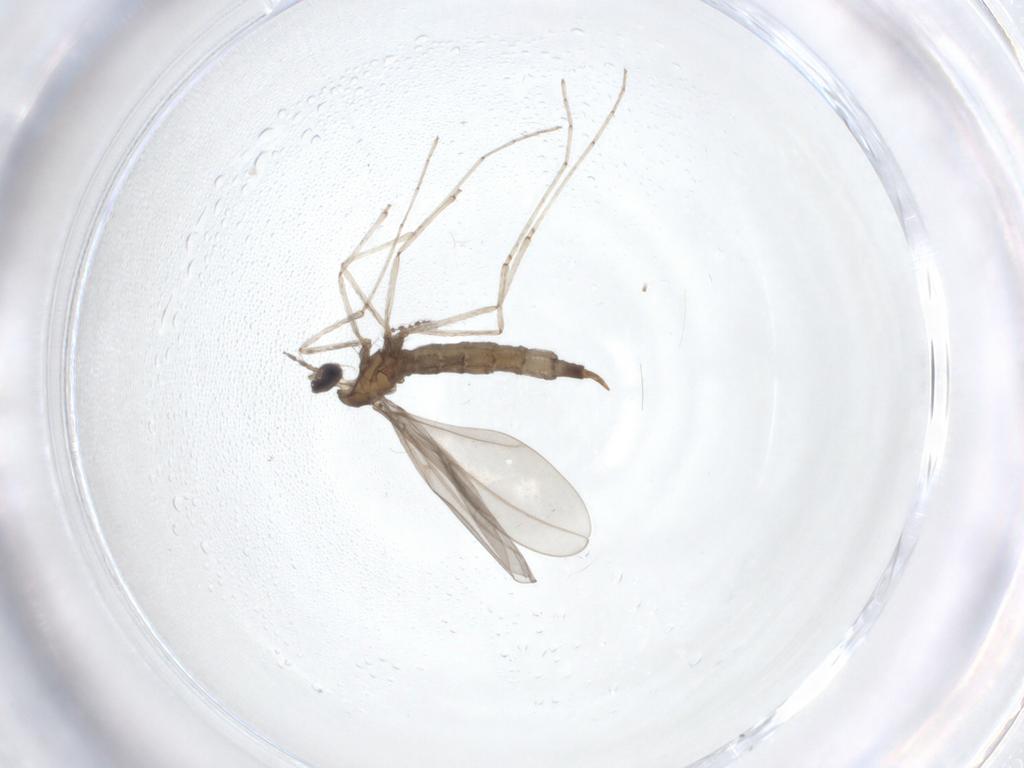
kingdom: Animalia
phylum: Arthropoda
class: Insecta
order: Diptera
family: Cecidomyiidae
